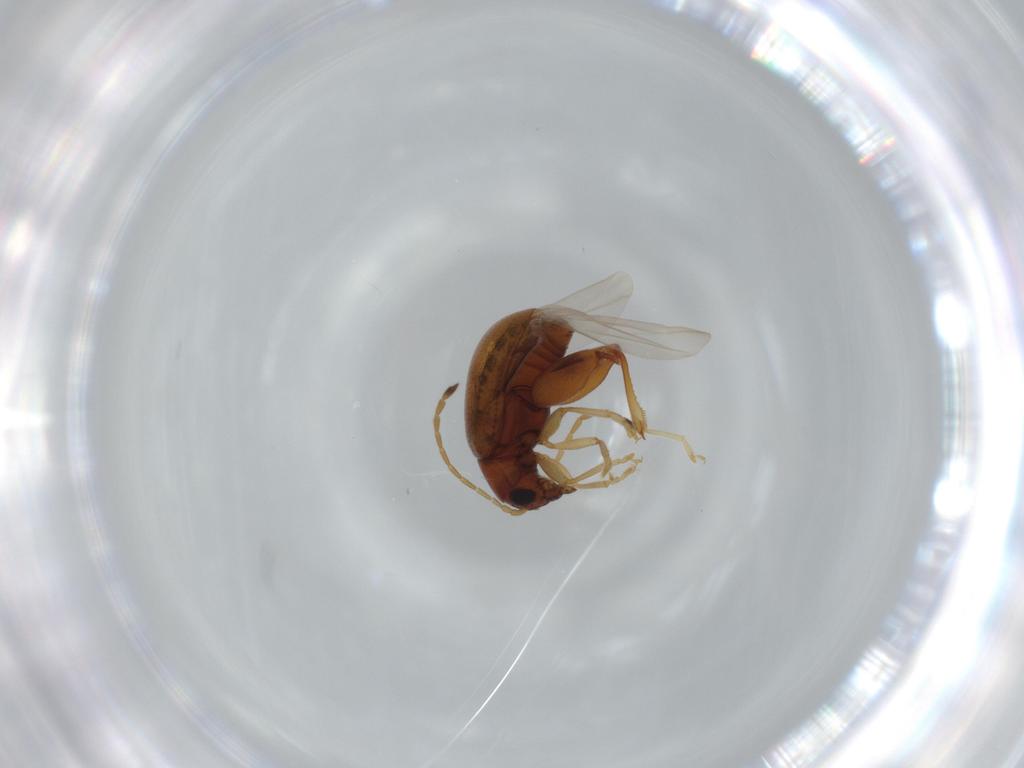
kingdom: Animalia
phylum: Arthropoda
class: Insecta
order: Coleoptera
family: Chrysomelidae
